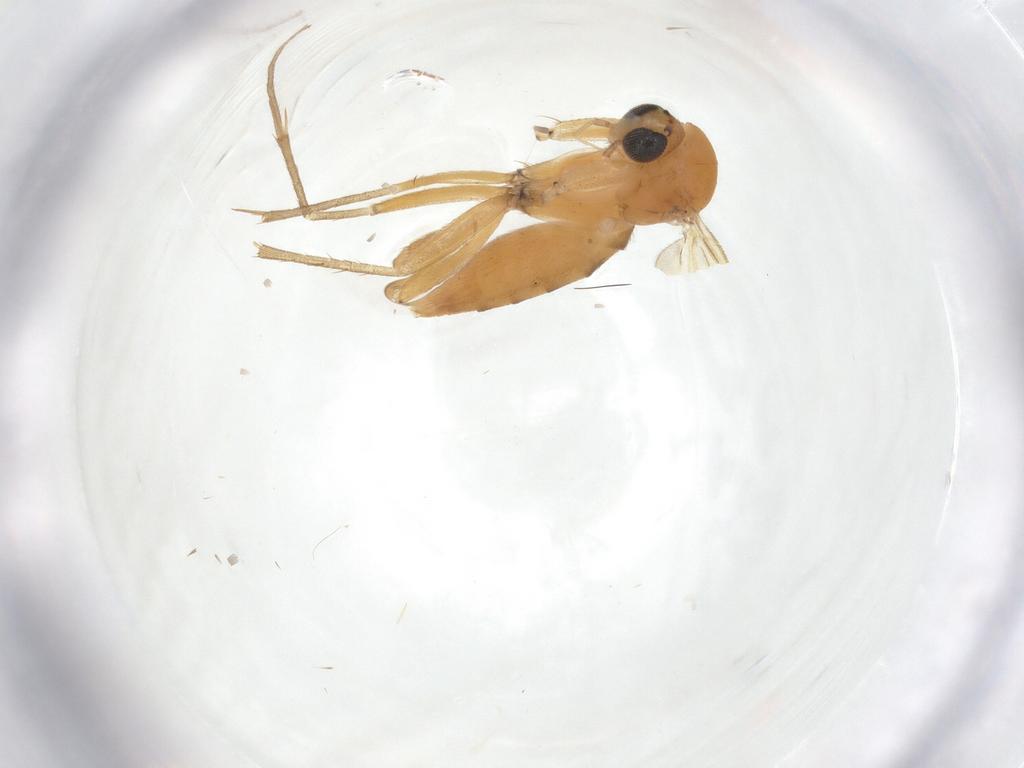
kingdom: Animalia
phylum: Arthropoda
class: Insecta
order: Diptera
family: Mycetophilidae
